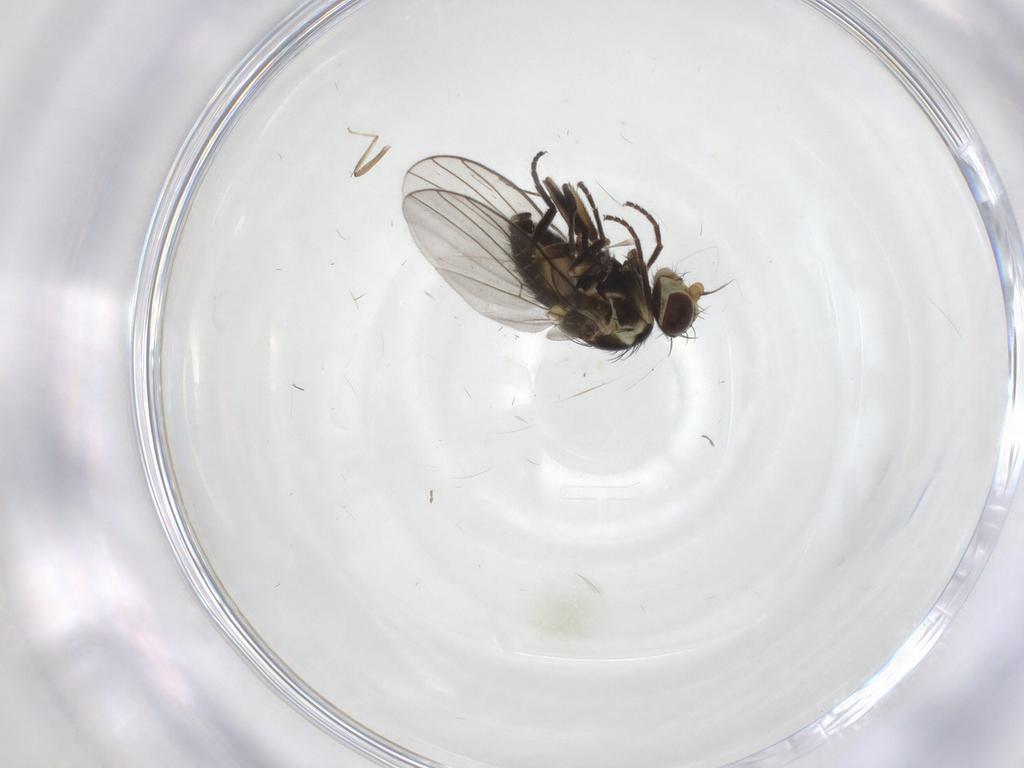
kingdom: Animalia
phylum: Arthropoda
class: Insecta
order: Diptera
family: Agromyzidae
